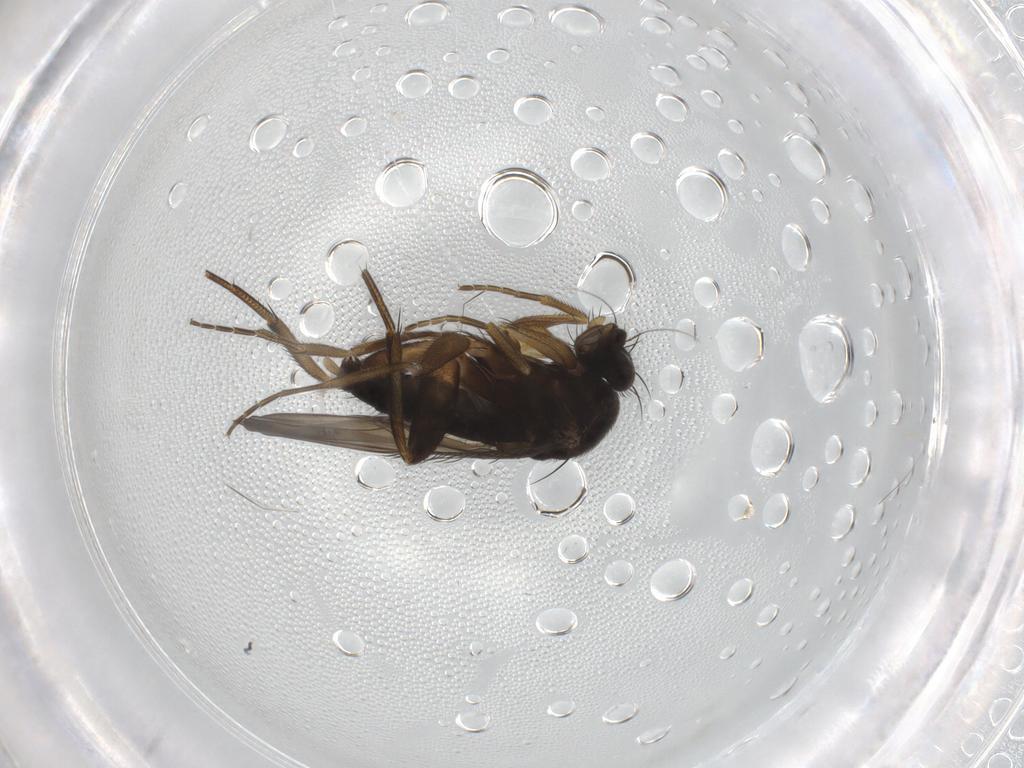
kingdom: Animalia
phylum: Arthropoda
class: Insecta
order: Diptera
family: Phoridae
